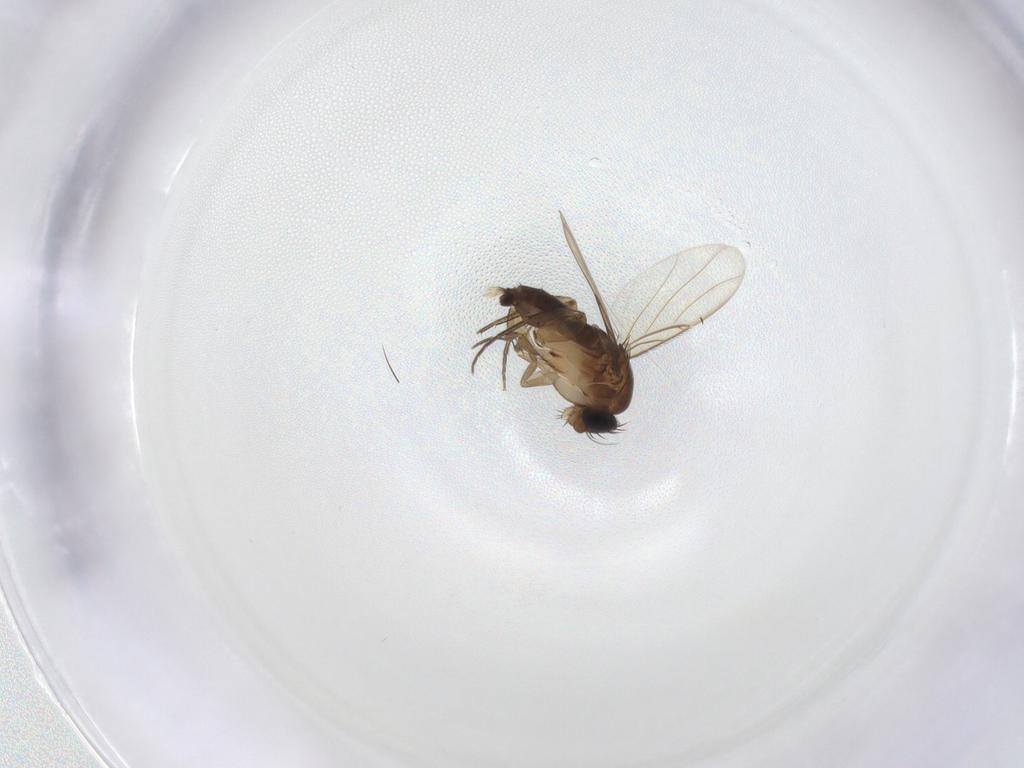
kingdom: Animalia
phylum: Arthropoda
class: Insecta
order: Diptera
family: Phoridae
